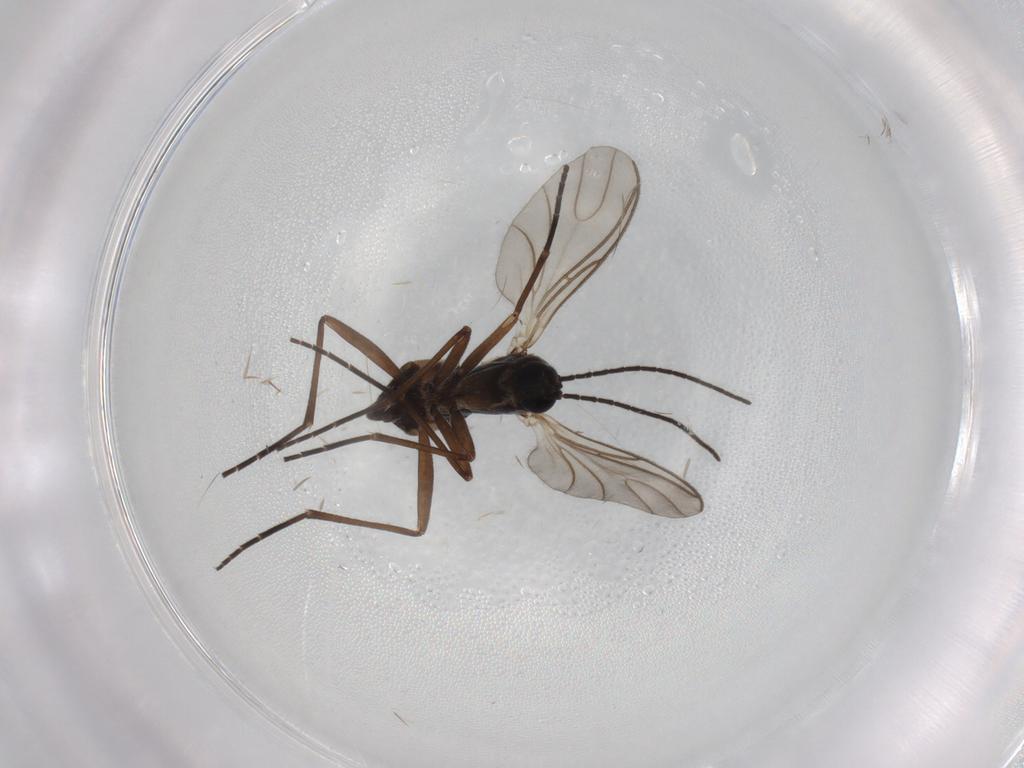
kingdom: Animalia
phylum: Arthropoda
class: Insecta
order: Diptera
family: Sciaridae
